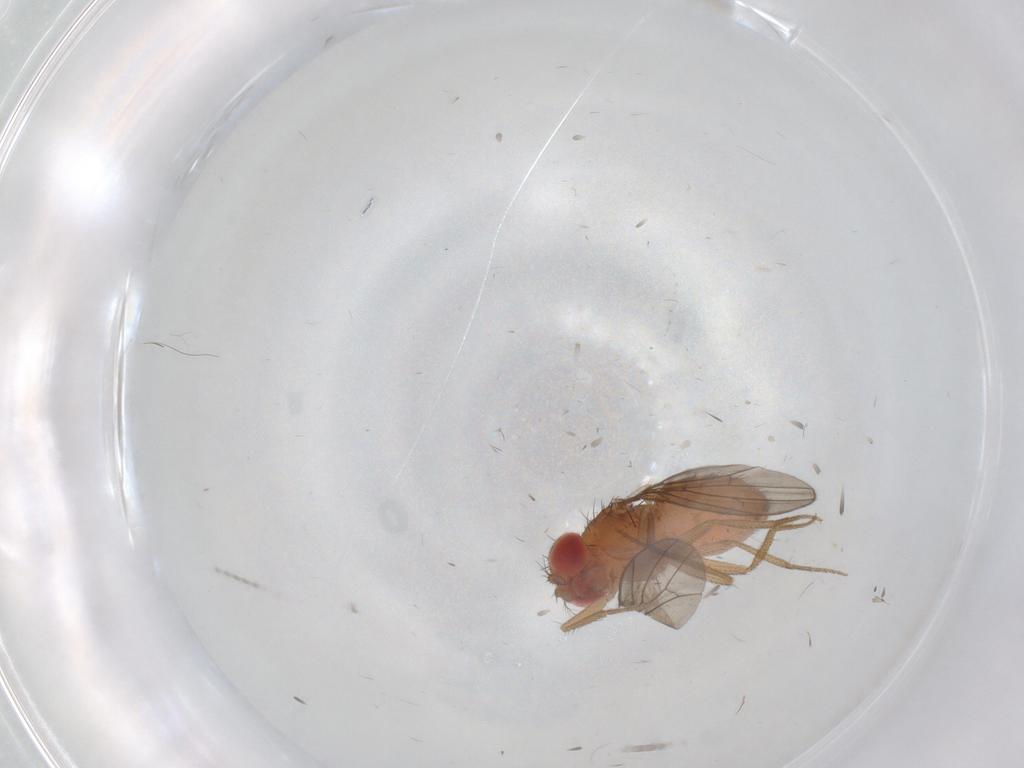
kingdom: Animalia
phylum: Arthropoda
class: Insecta
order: Diptera
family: Drosophilidae
